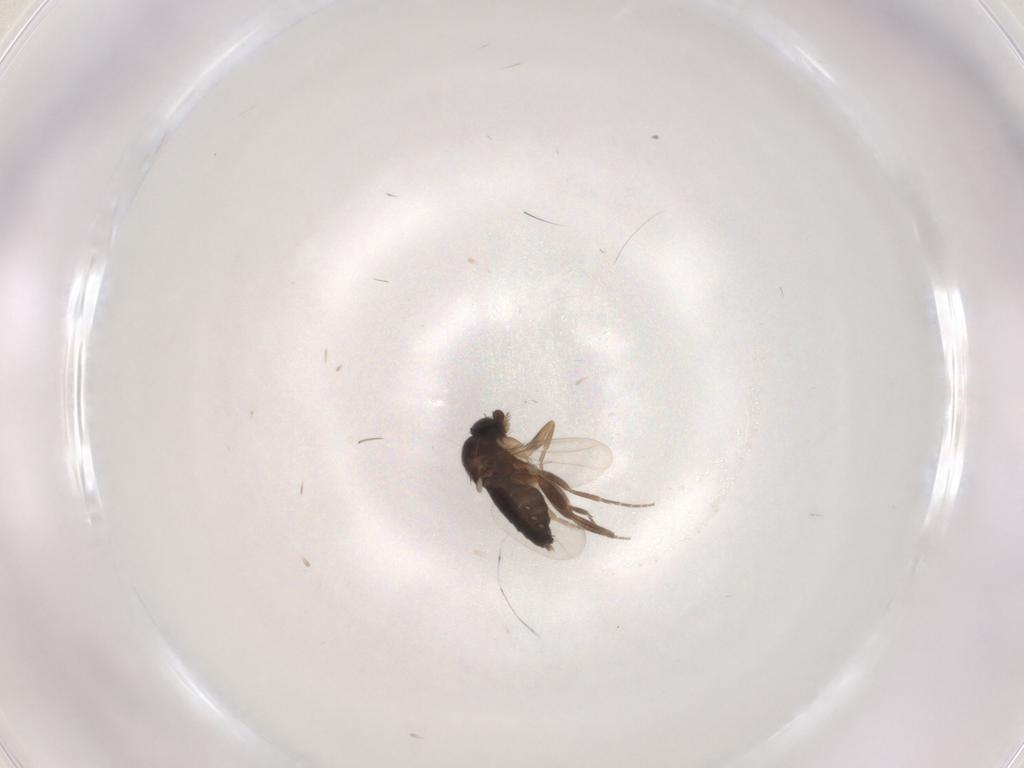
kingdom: Animalia
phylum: Arthropoda
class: Insecta
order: Diptera
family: Phoridae
